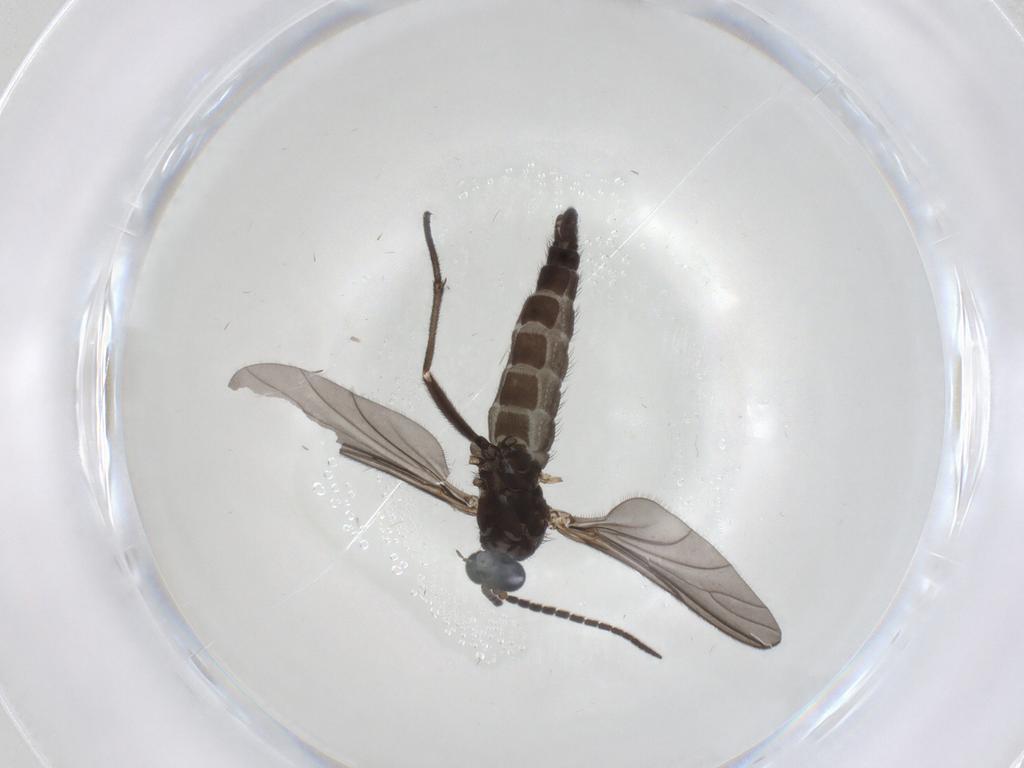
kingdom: Animalia
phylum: Arthropoda
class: Insecta
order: Diptera
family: Sciaridae
